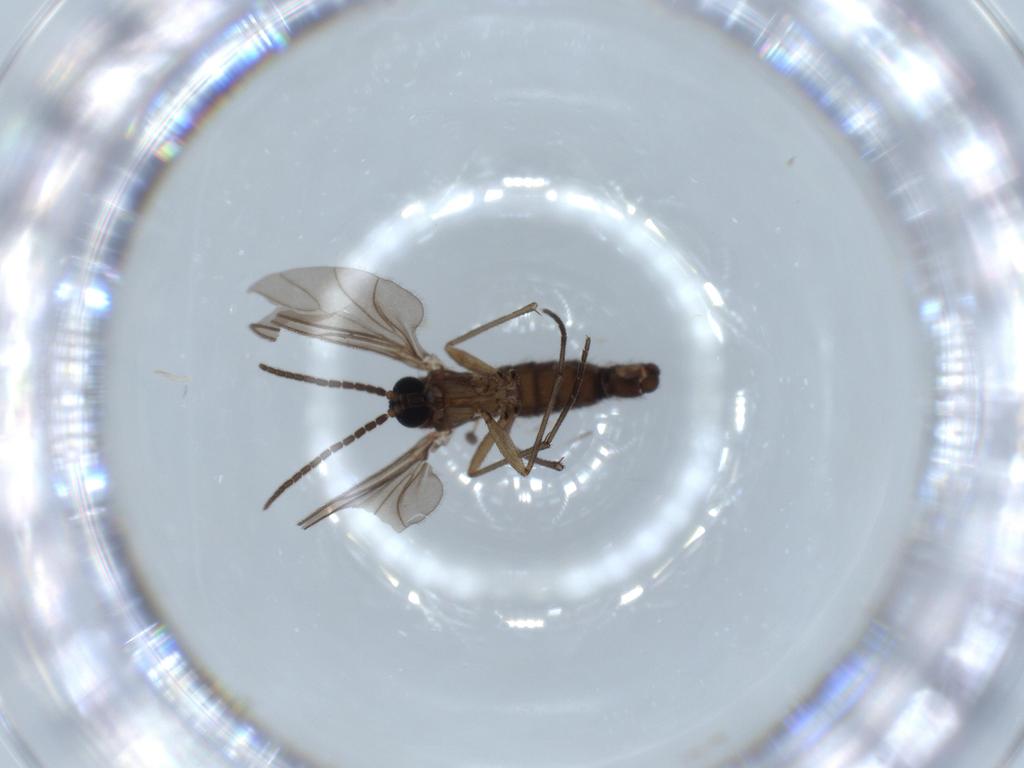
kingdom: Animalia
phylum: Arthropoda
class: Insecta
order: Diptera
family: Sciaridae
